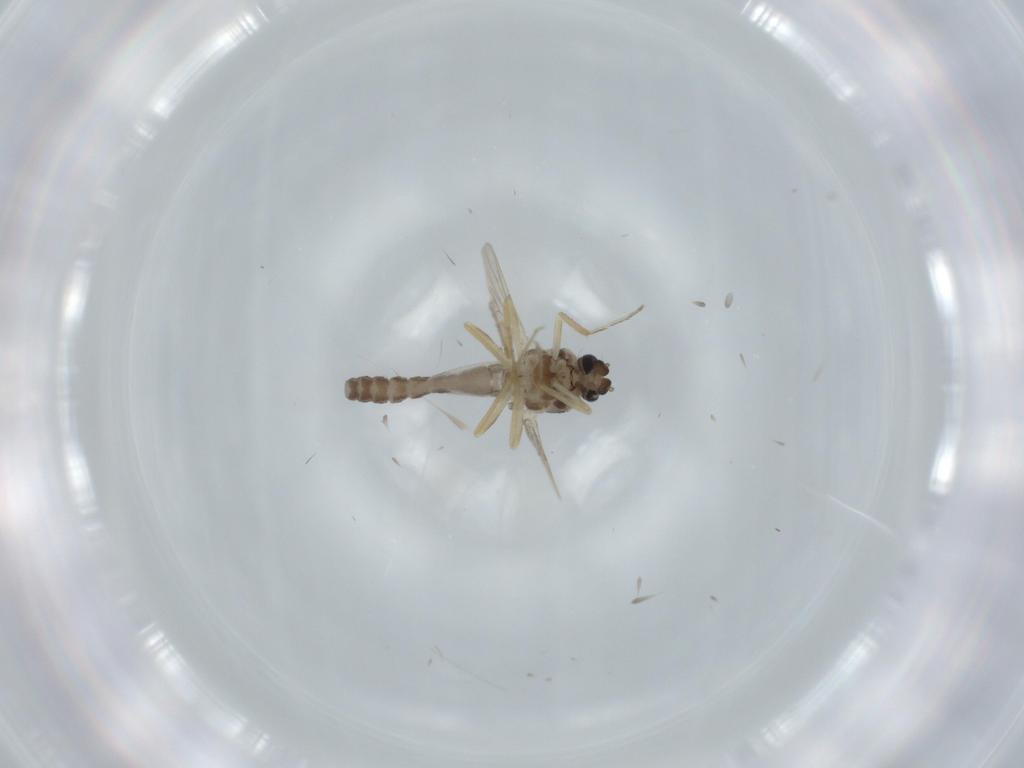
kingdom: Animalia
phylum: Arthropoda
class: Insecta
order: Diptera
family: Ceratopogonidae
